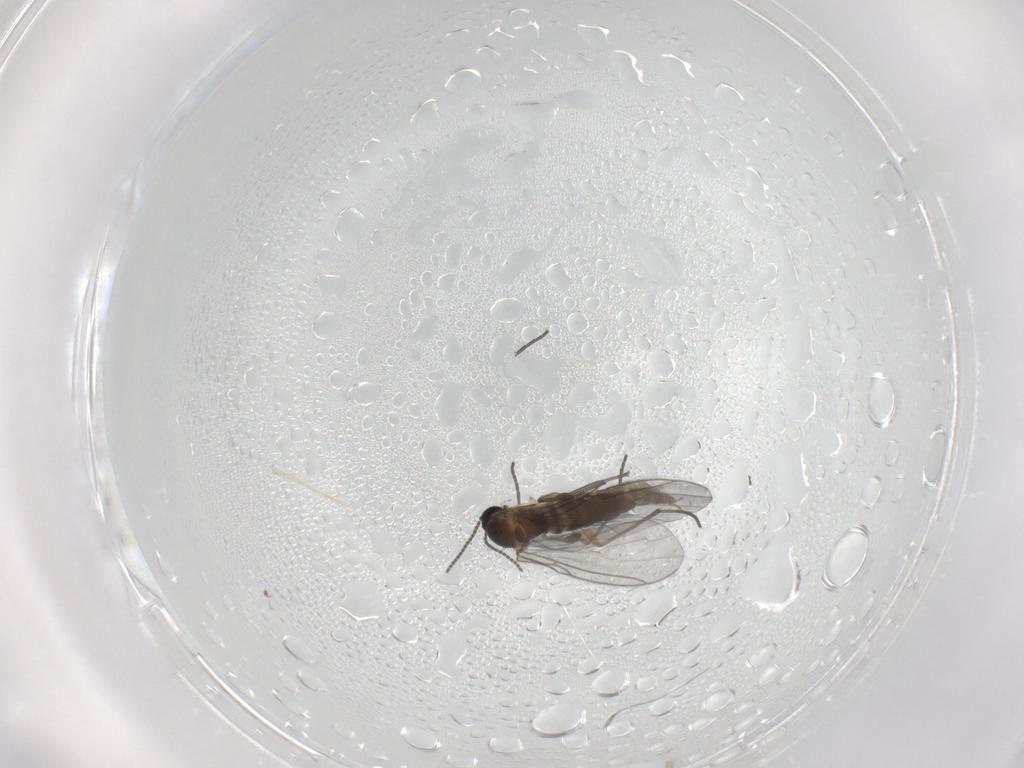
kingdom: Animalia
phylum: Arthropoda
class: Insecta
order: Diptera
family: Sciaridae
